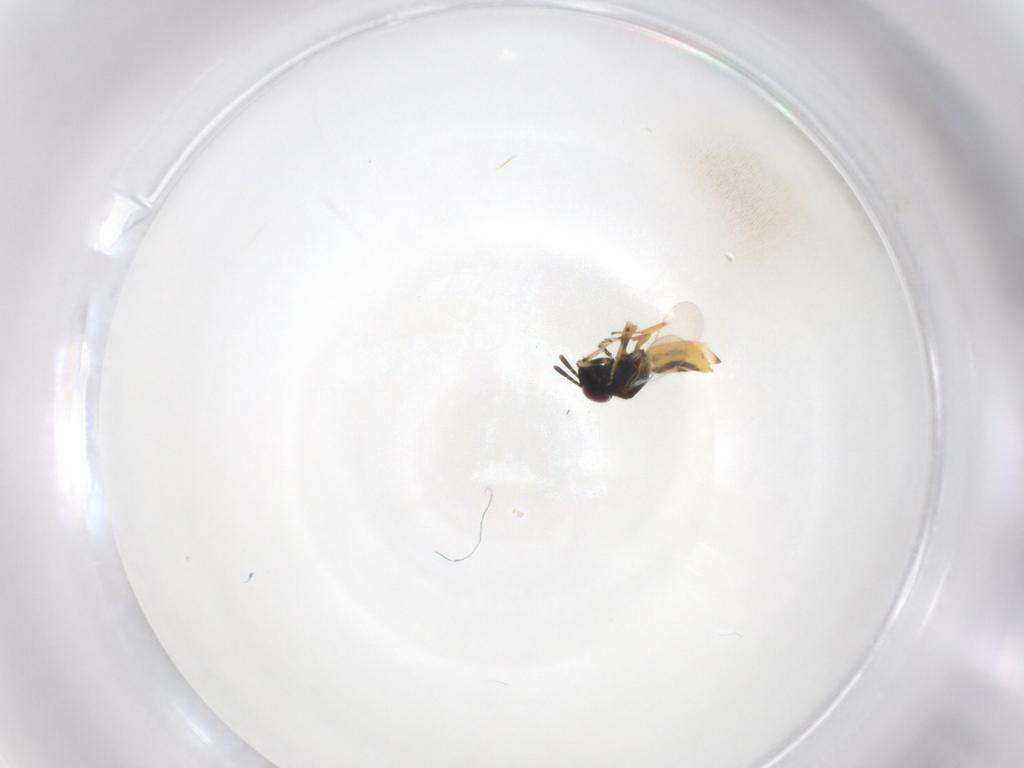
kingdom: Animalia
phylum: Arthropoda
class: Insecta
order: Hymenoptera
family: Encyrtidae
